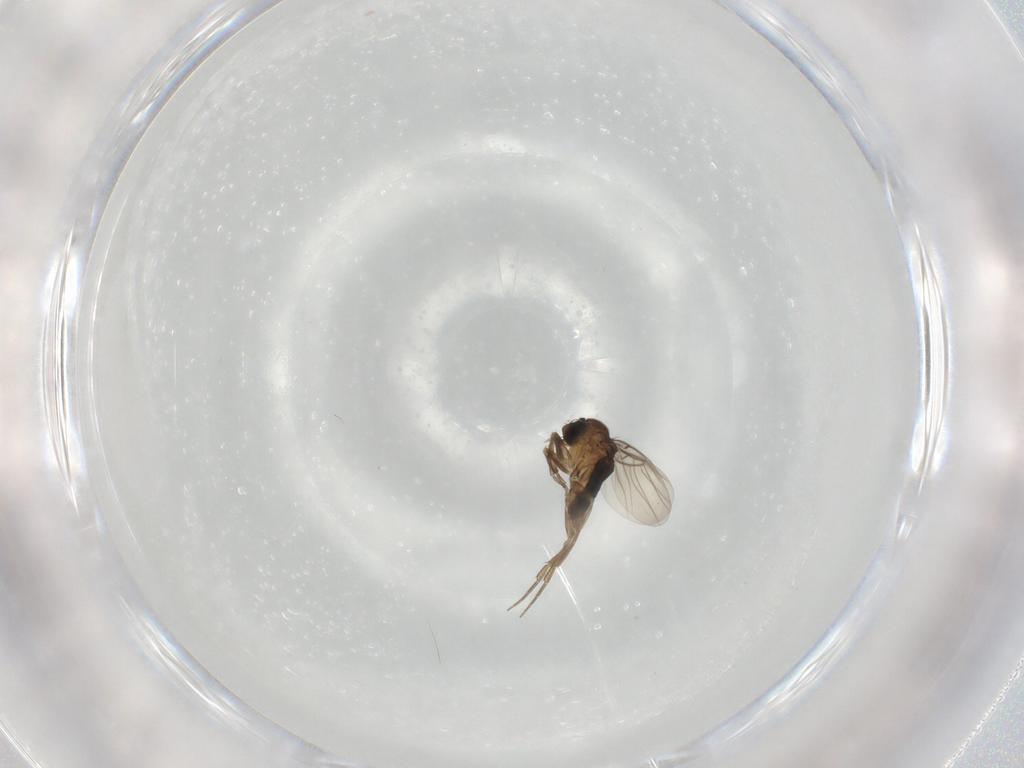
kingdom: Animalia
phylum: Arthropoda
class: Insecta
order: Diptera
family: Phoridae
